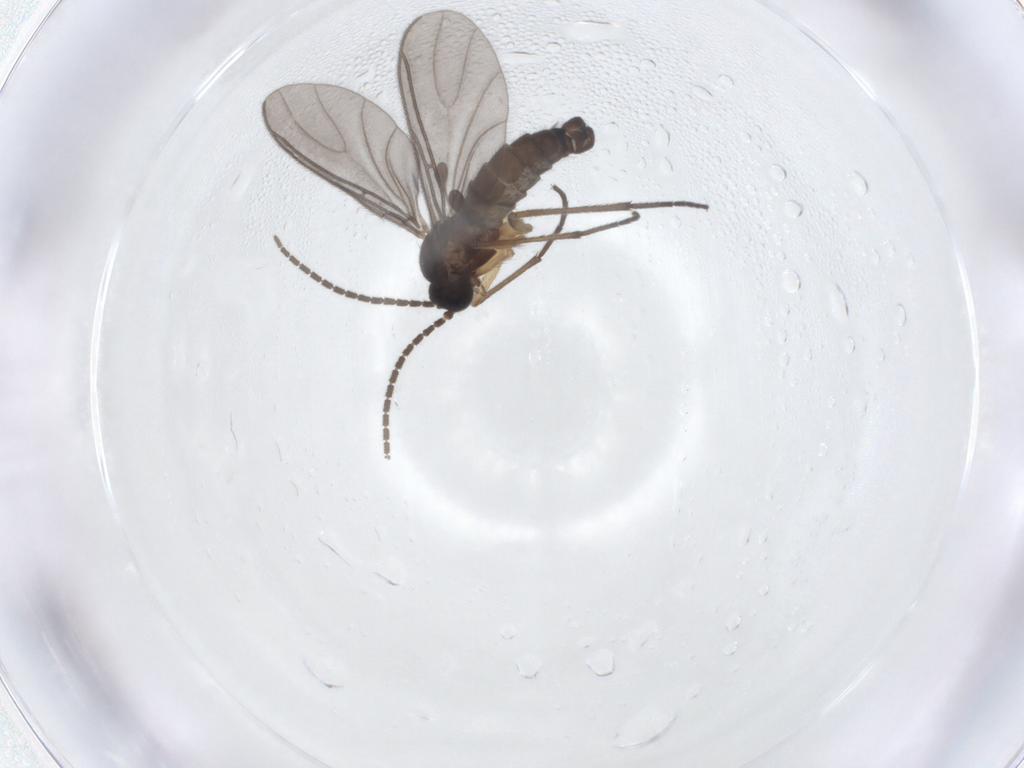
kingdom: Animalia
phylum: Arthropoda
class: Insecta
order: Diptera
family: Sciaridae
